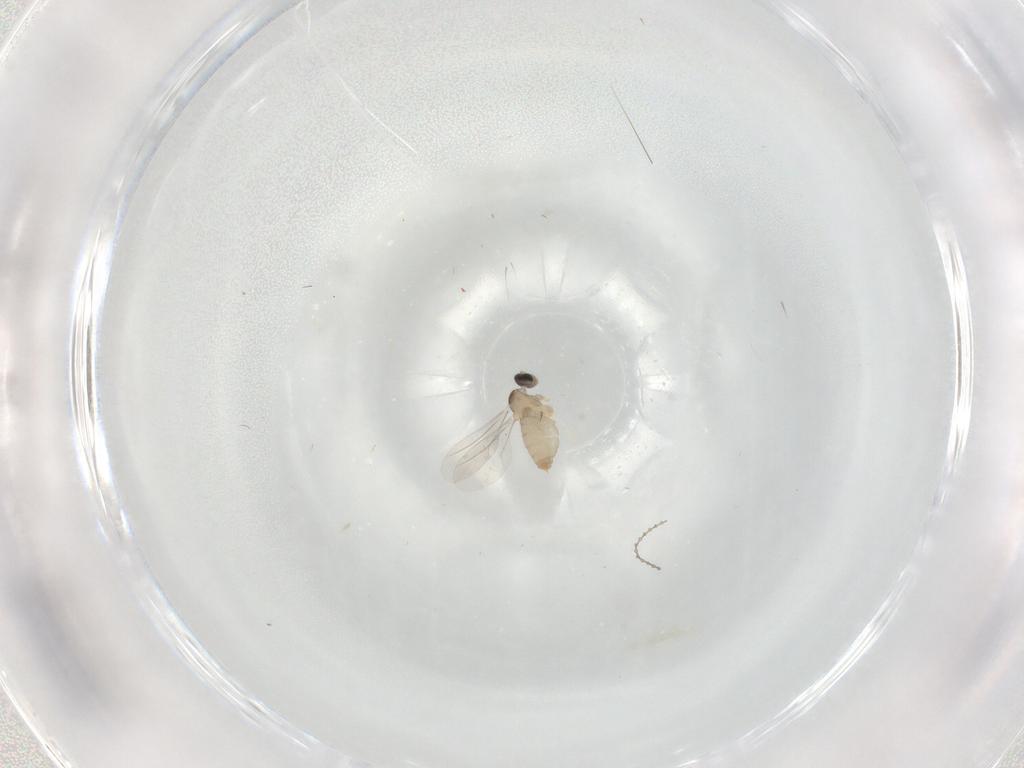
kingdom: Animalia
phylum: Arthropoda
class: Insecta
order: Diptera
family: Cecidomyiidae
